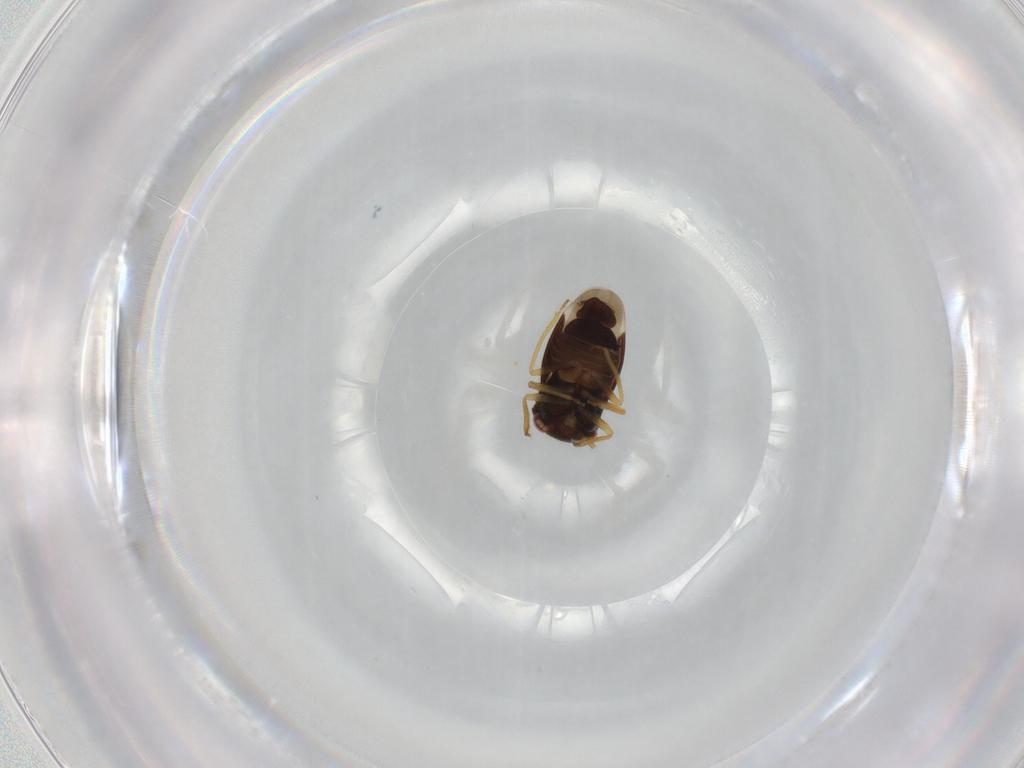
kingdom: Animalia
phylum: Arthropoda
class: Insecta
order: Hemiptera
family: Schizopteridae
